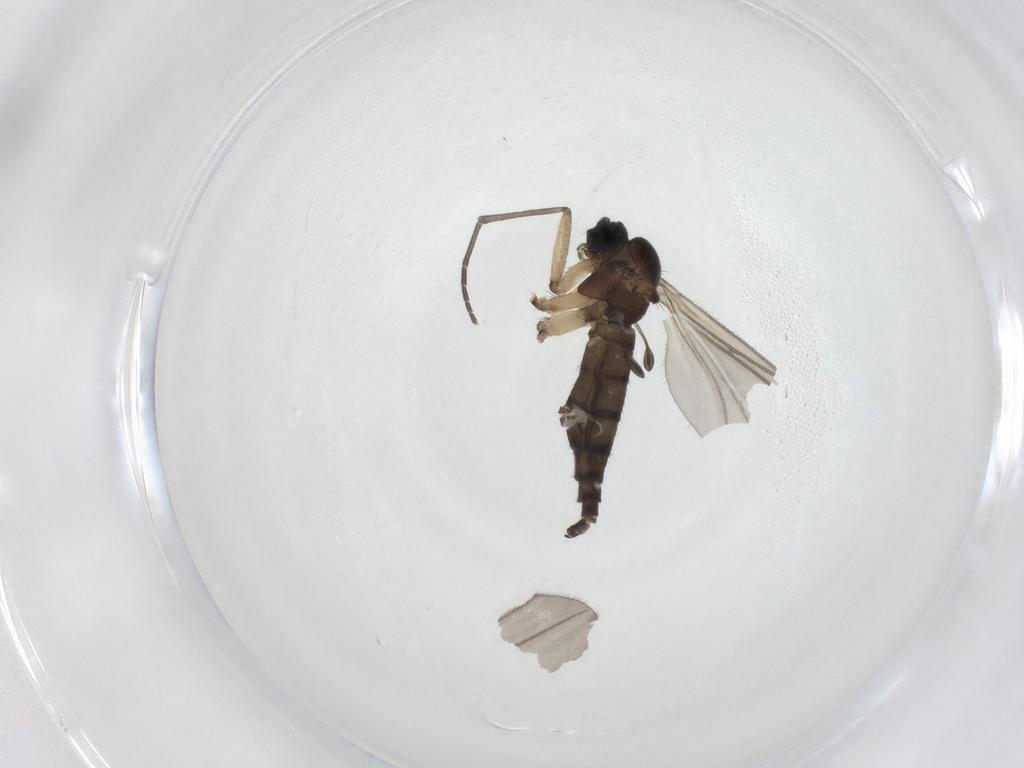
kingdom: Animalia
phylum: Arthropoda
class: Insecta
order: Diptera
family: Sciaridae
